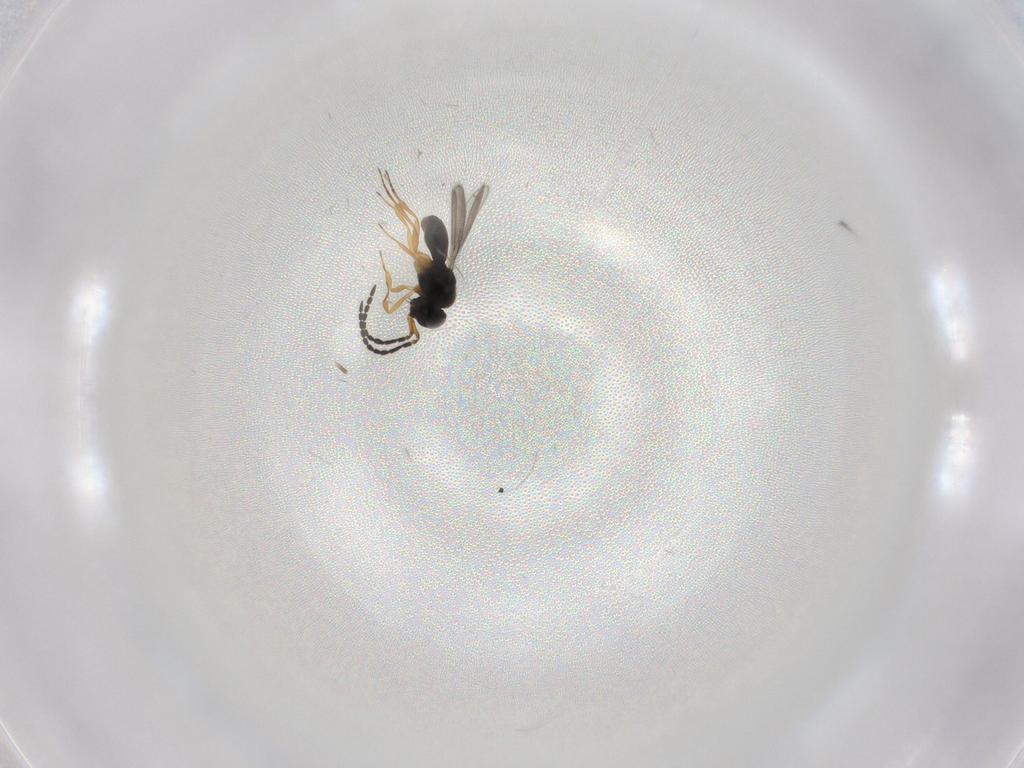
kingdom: Animalia
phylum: Arthropoda
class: Insecta
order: Hymenoptera
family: Scelionidae
